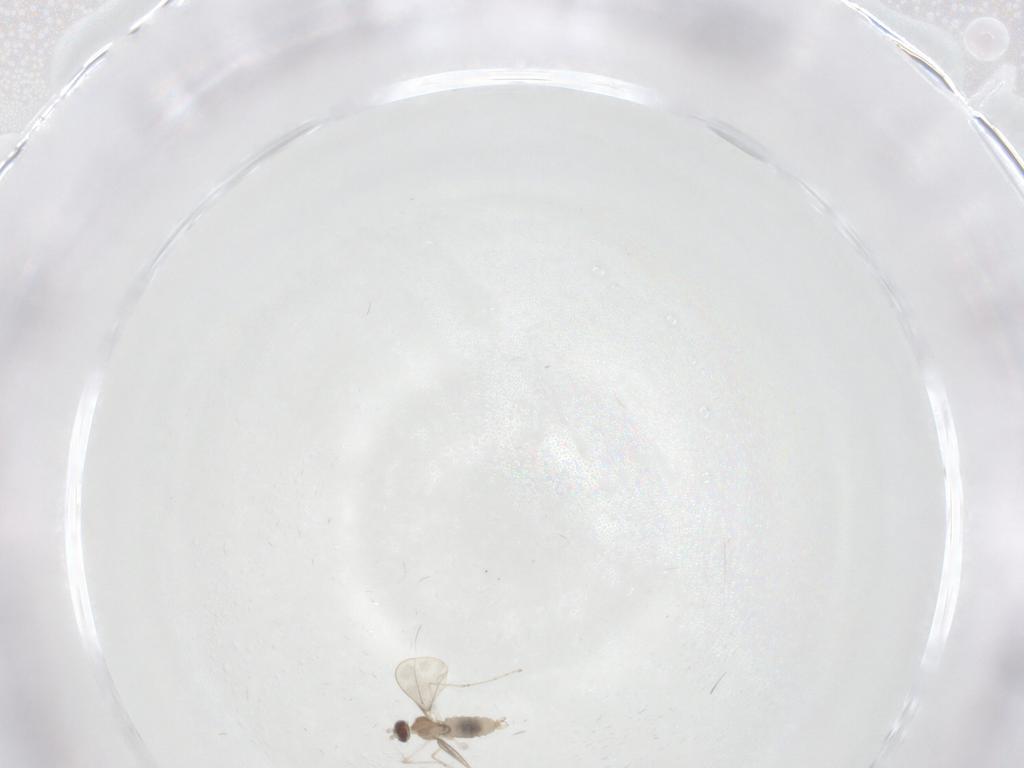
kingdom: Animalia
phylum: Arthropoda
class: Insecta
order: Diptera
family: Cecidomyiidae
